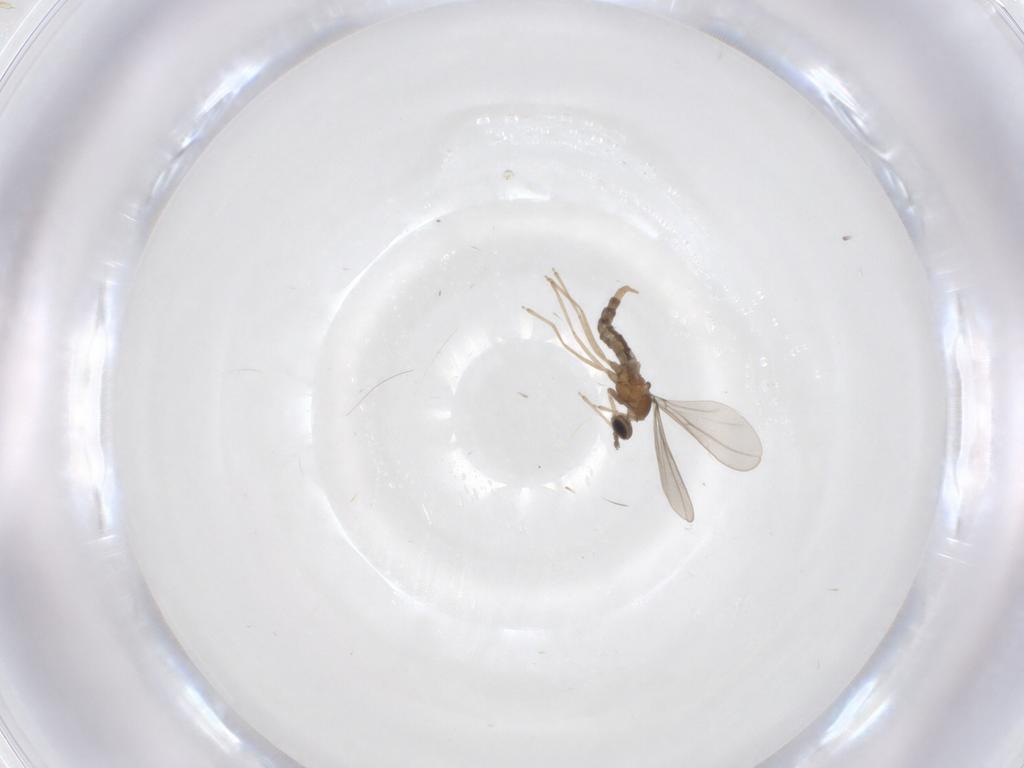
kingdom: Animalia
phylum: Arthropoda
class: Insecta
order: Diptera
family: Cecidomyiidae
